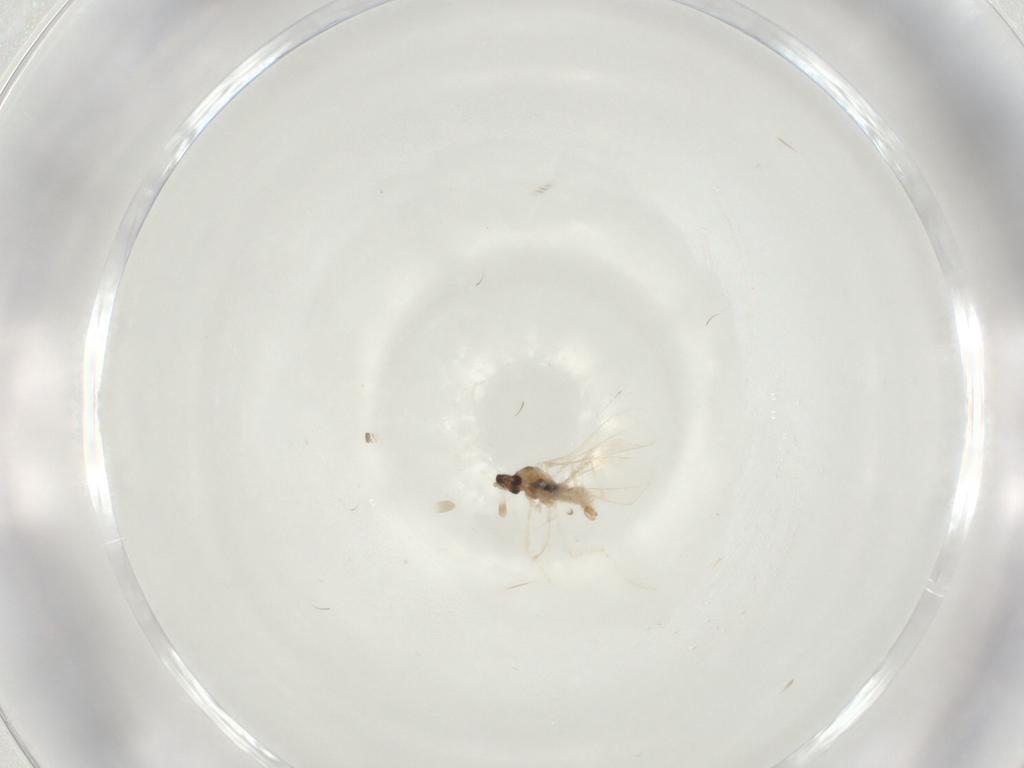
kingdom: Animalia
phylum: Arthropoda
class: Insecta
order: Diptera
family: Cecidomyiidae
